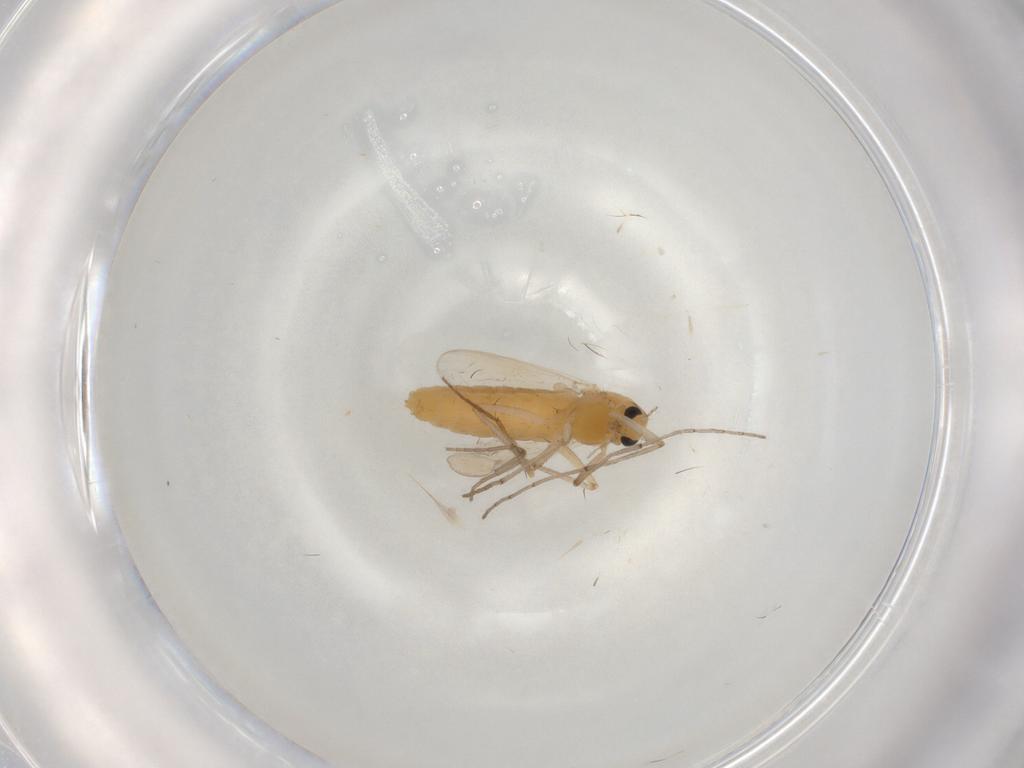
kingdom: Animalia
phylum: Arthropoda
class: Insecta
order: Diptera
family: Chironomidae
